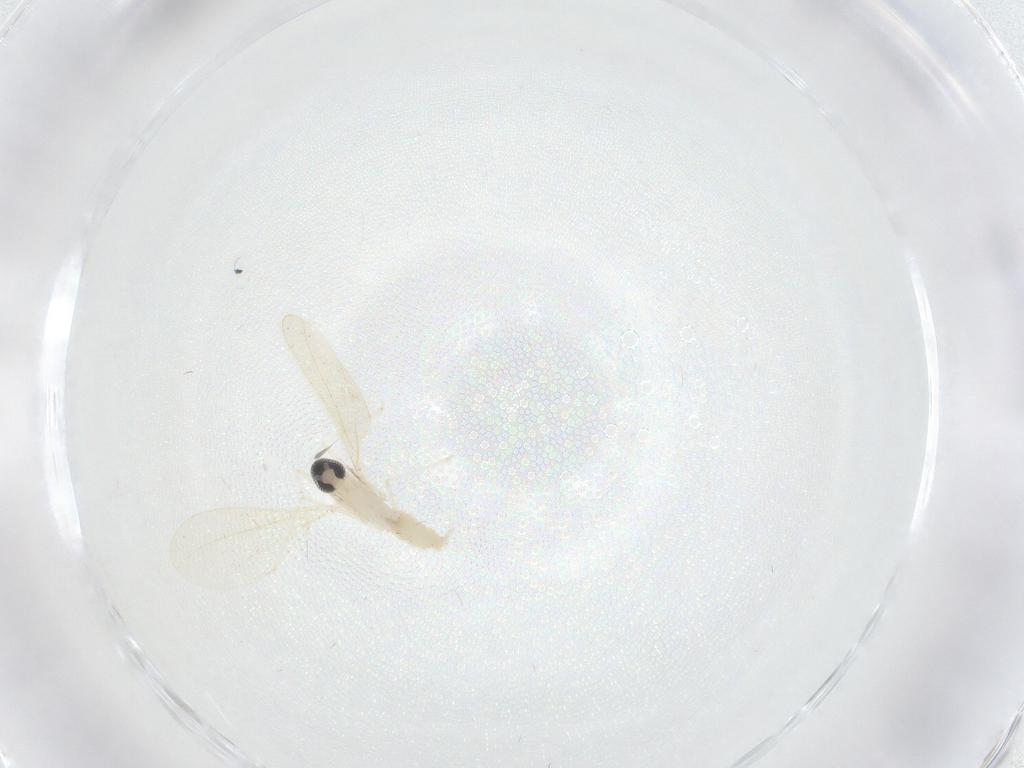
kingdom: Animalia
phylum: Arthropoda
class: Insecta
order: Diptera
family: Cecidomyiidae
